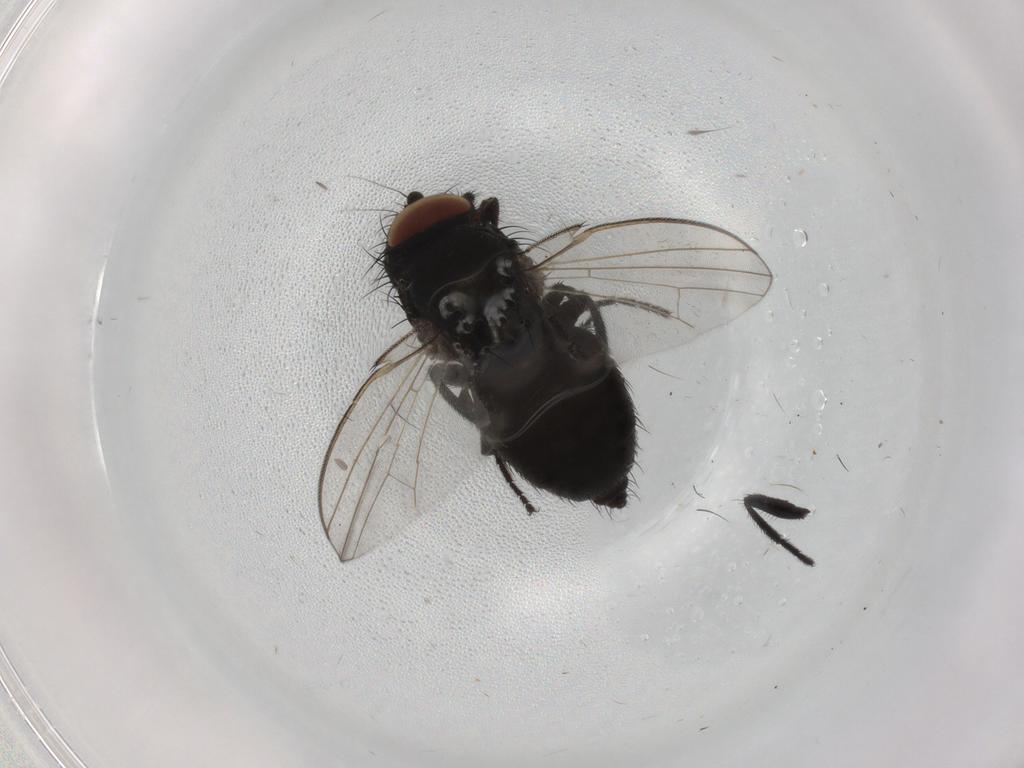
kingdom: Animalia
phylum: Arthropoda
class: Insecta
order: Diptera
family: Milichiidae
